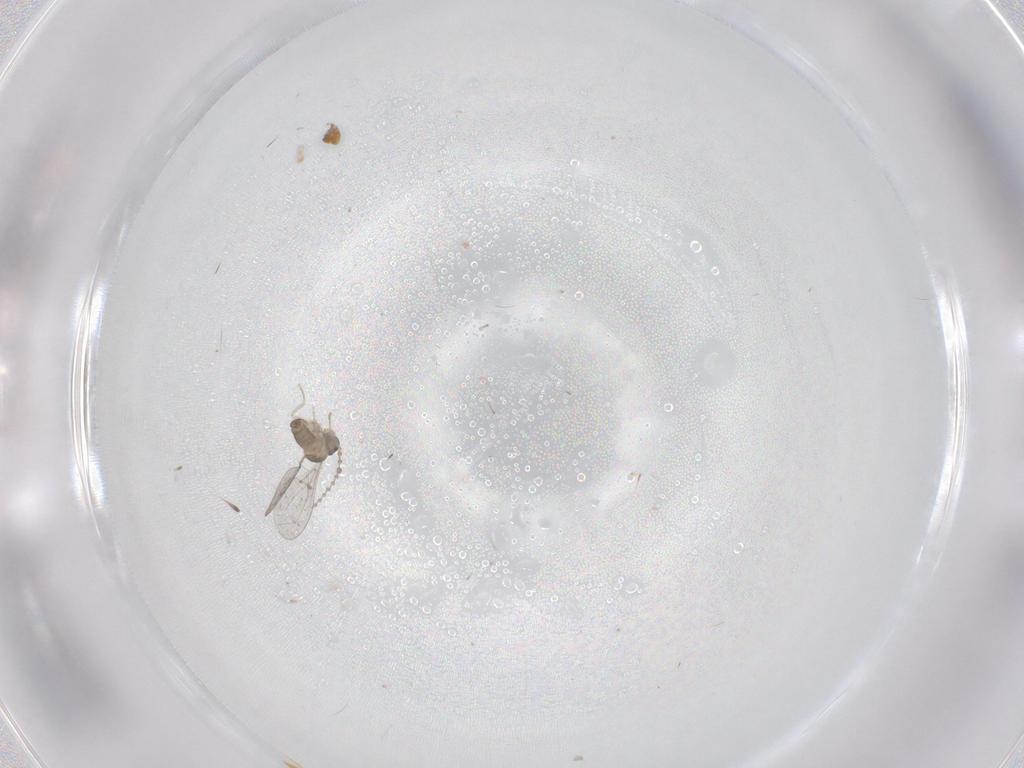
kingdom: Animalia
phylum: Arthropoda
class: Insecta
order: Diptera
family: Cecidomyiidae
